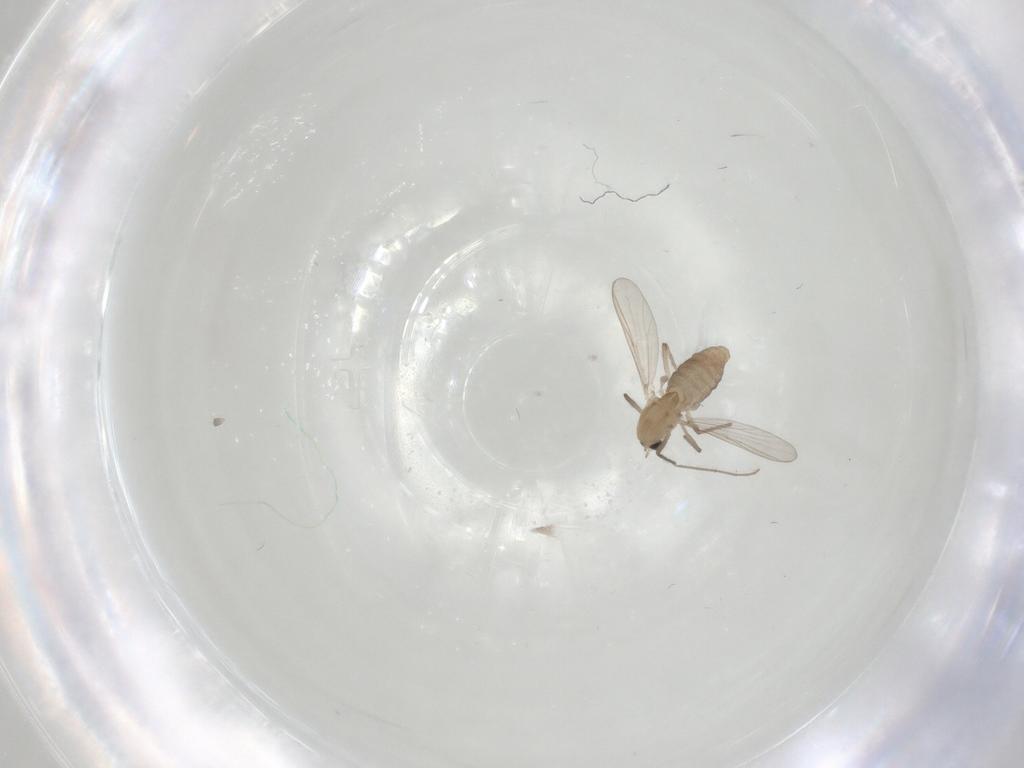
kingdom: Animalia
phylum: Arthropoda
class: Insecta
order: Diptera
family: Chironomidae
